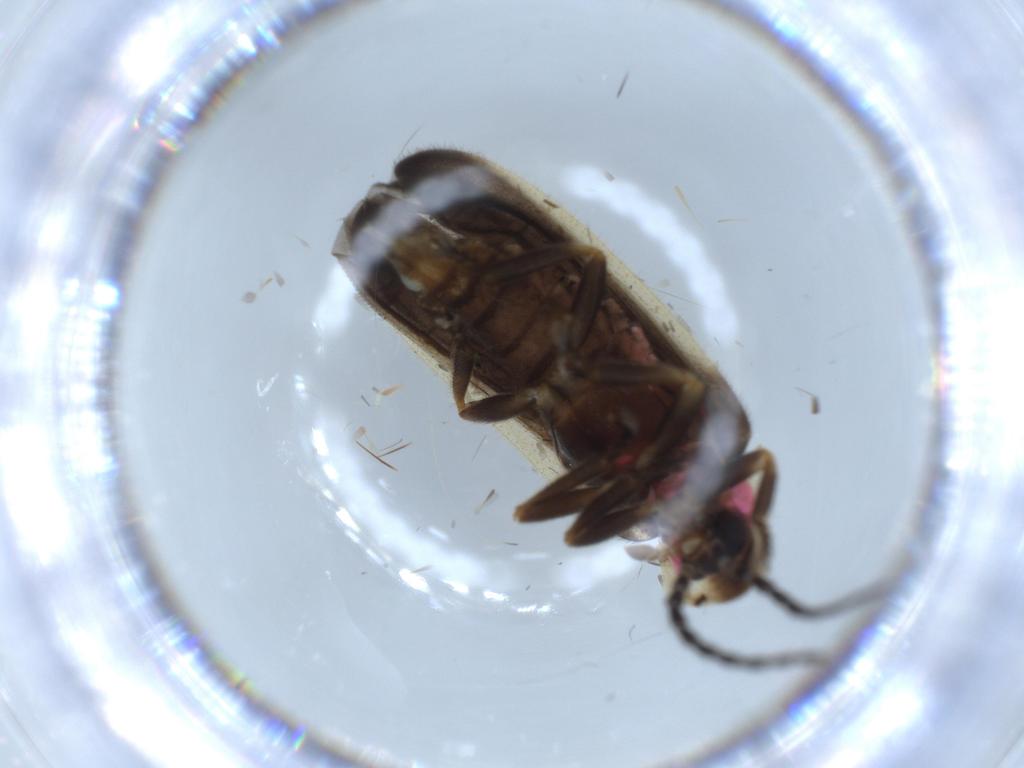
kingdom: Animalia
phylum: Arthropoda
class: Insecta
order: Coleoptera
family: Lampyridae
